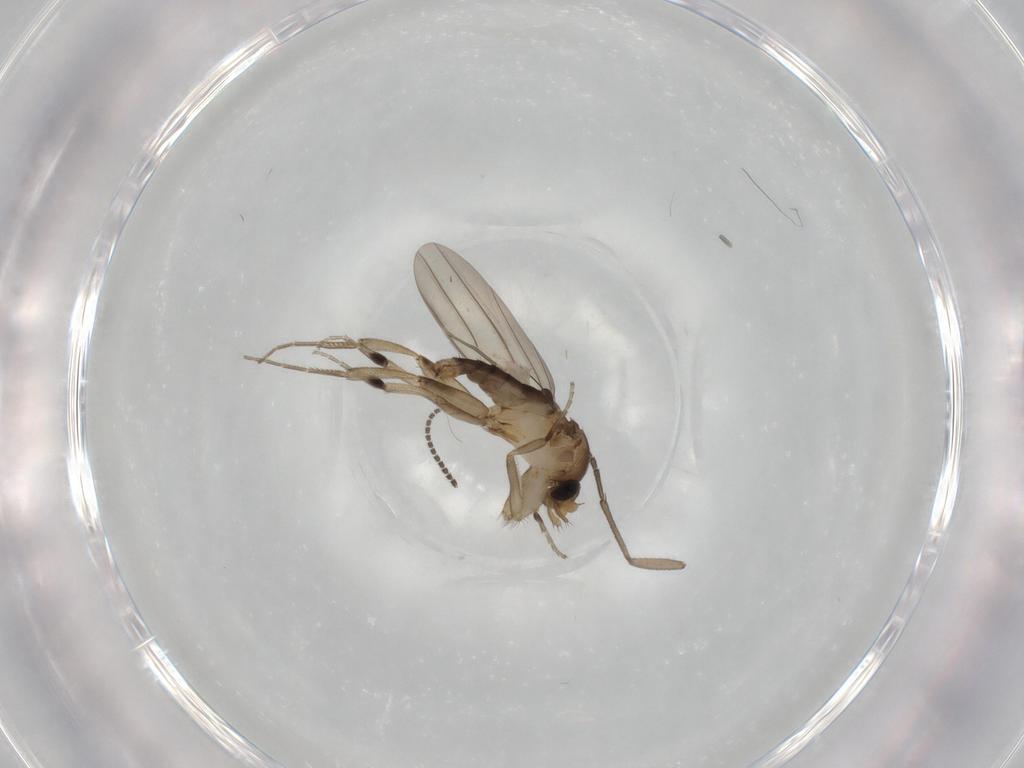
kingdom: Animalia
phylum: Arthropoda
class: Insecta
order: Diptera
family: Sciaridae
